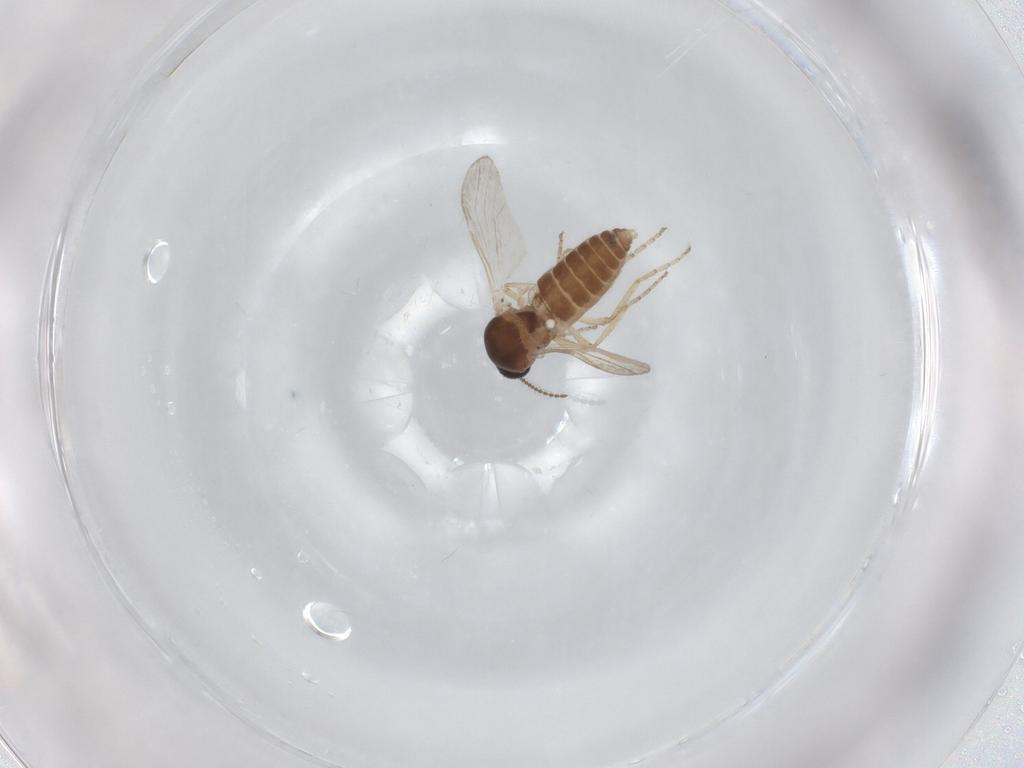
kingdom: Animalia
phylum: Arthropoda
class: Insecta
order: Diptera
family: Ceratopogonidae
